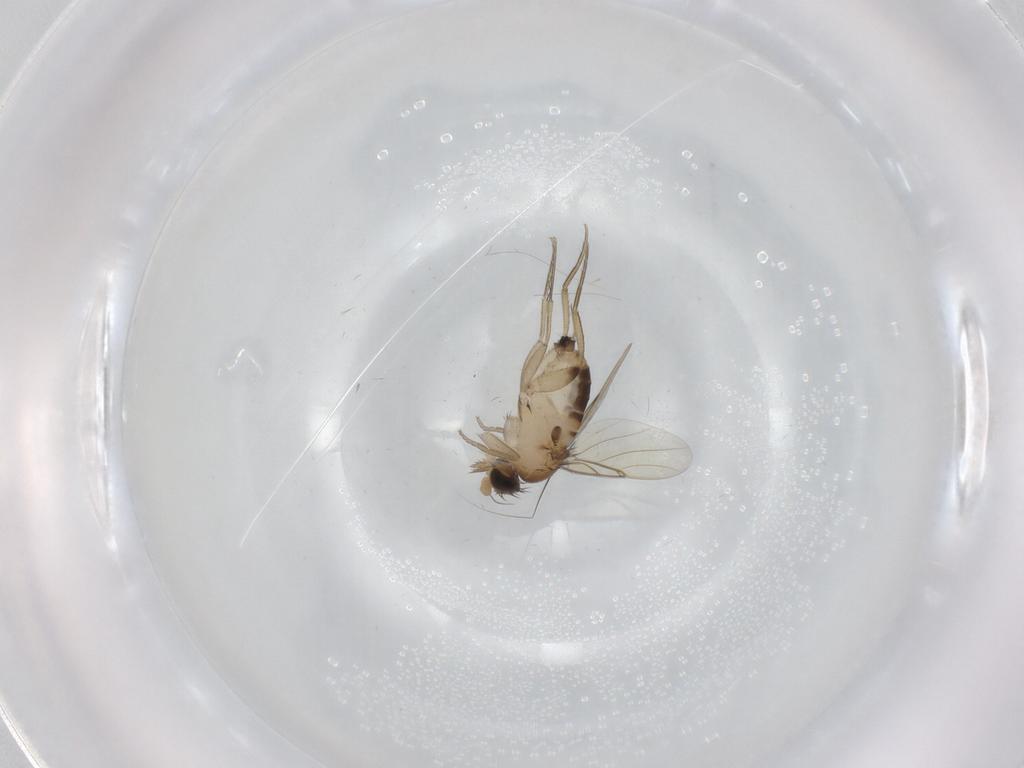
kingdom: Animalia
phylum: Arthropoda
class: Insecta
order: Diptera
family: Phoridae
